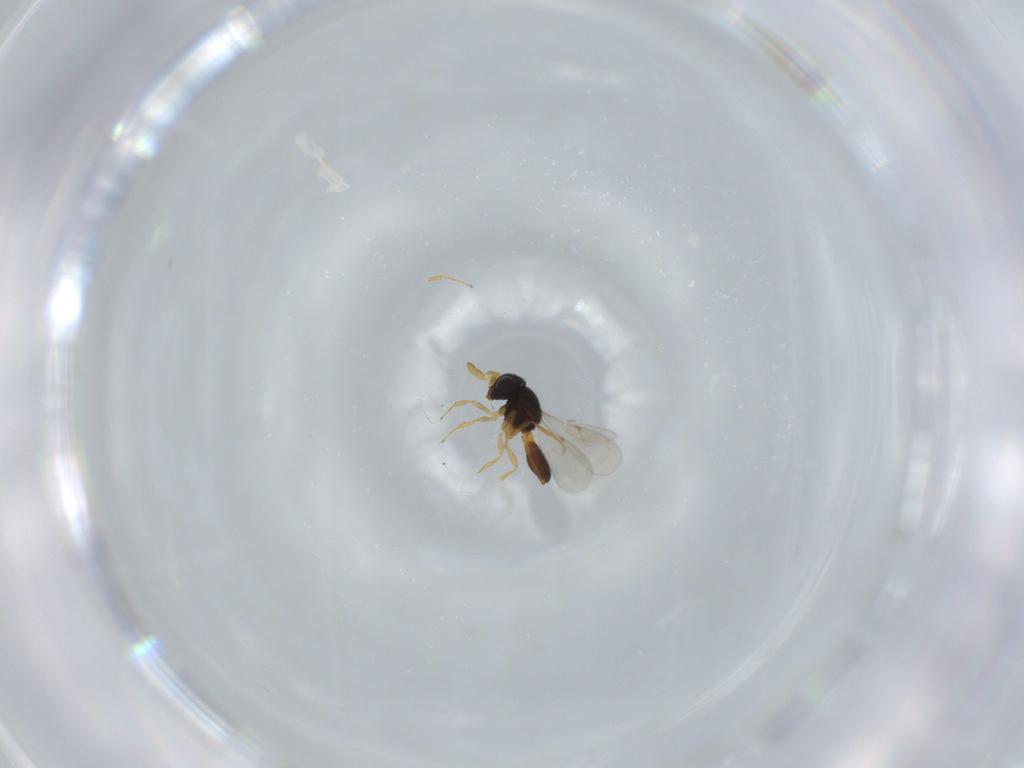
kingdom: Animalia
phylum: Arthropoda
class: Insecta
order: Hymenoptera
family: Scelionidae
